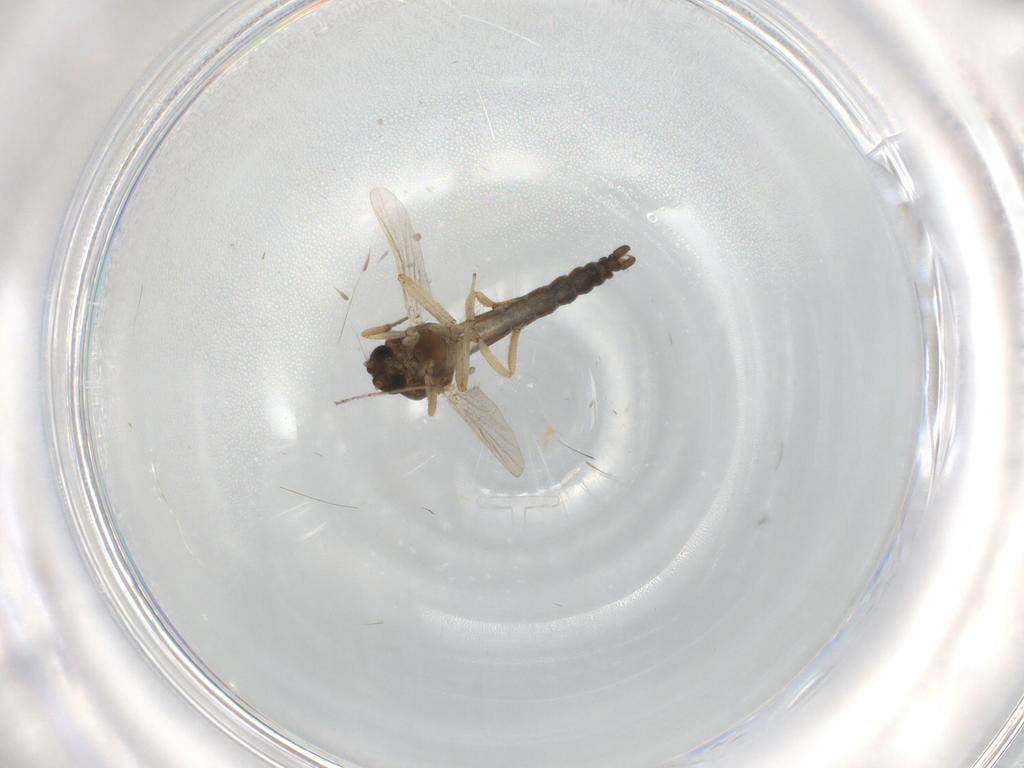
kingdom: Animalia
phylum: Arthropoda
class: Insecta
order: Diptera
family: Ceratopogonidae
